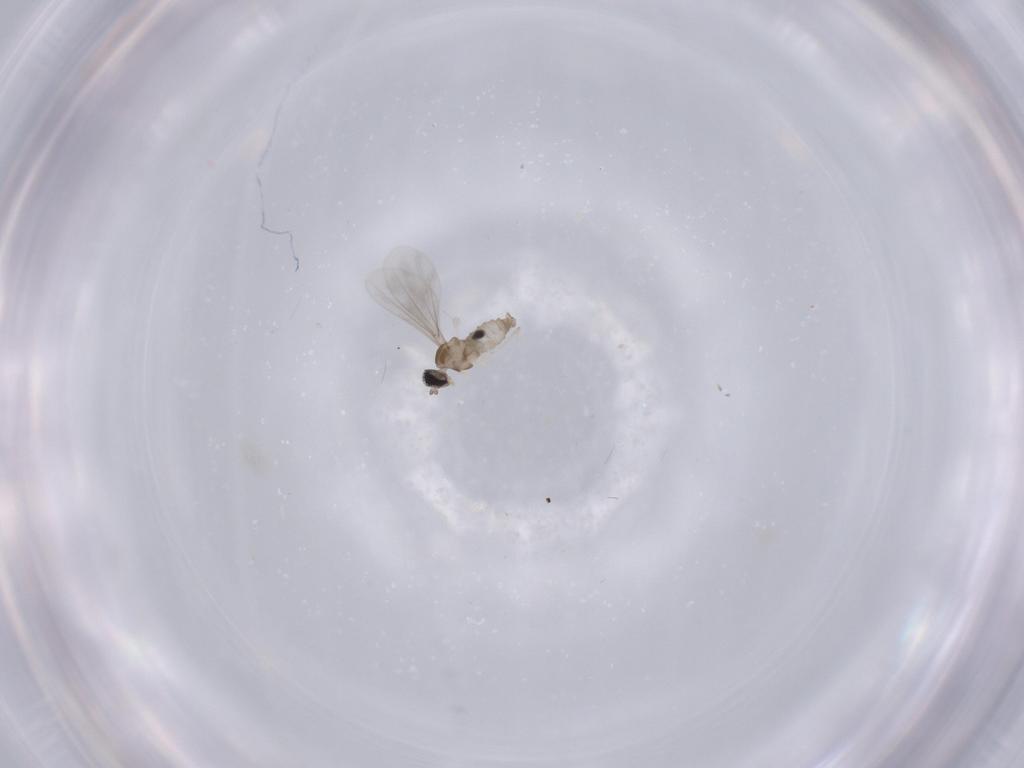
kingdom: Animalia
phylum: Arthropoda
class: Insecta
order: Diptera
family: Cecidomyiidae
